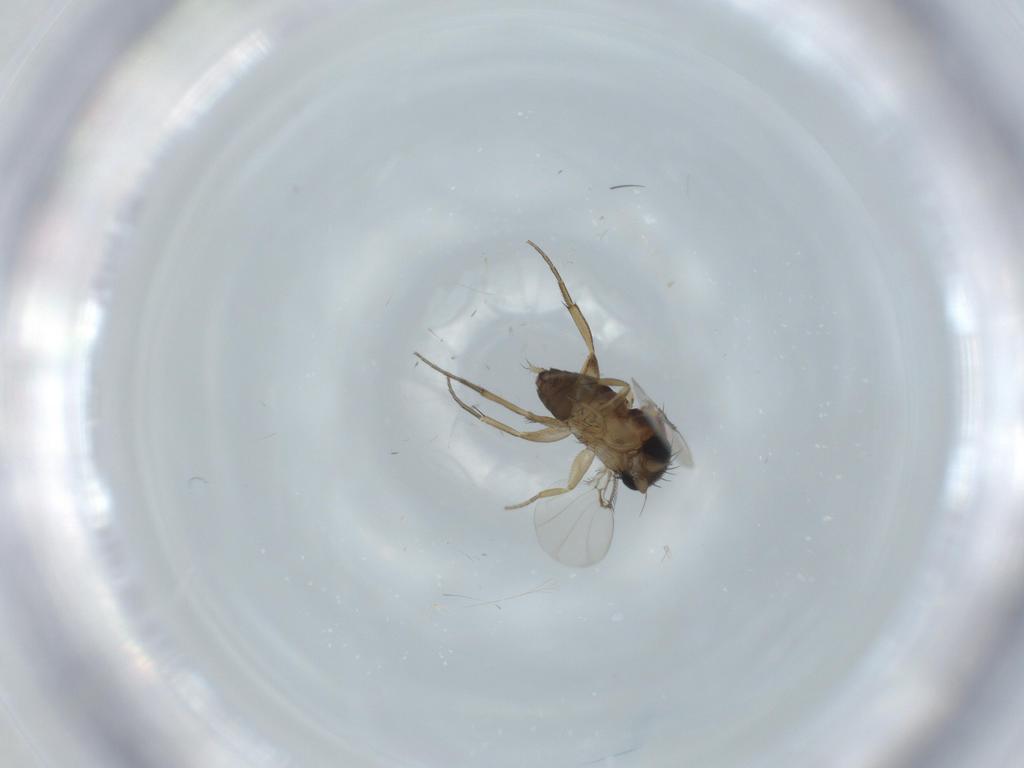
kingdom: Animalia
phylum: Arthropoda
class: Insecta
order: Diptera
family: Phoridae
